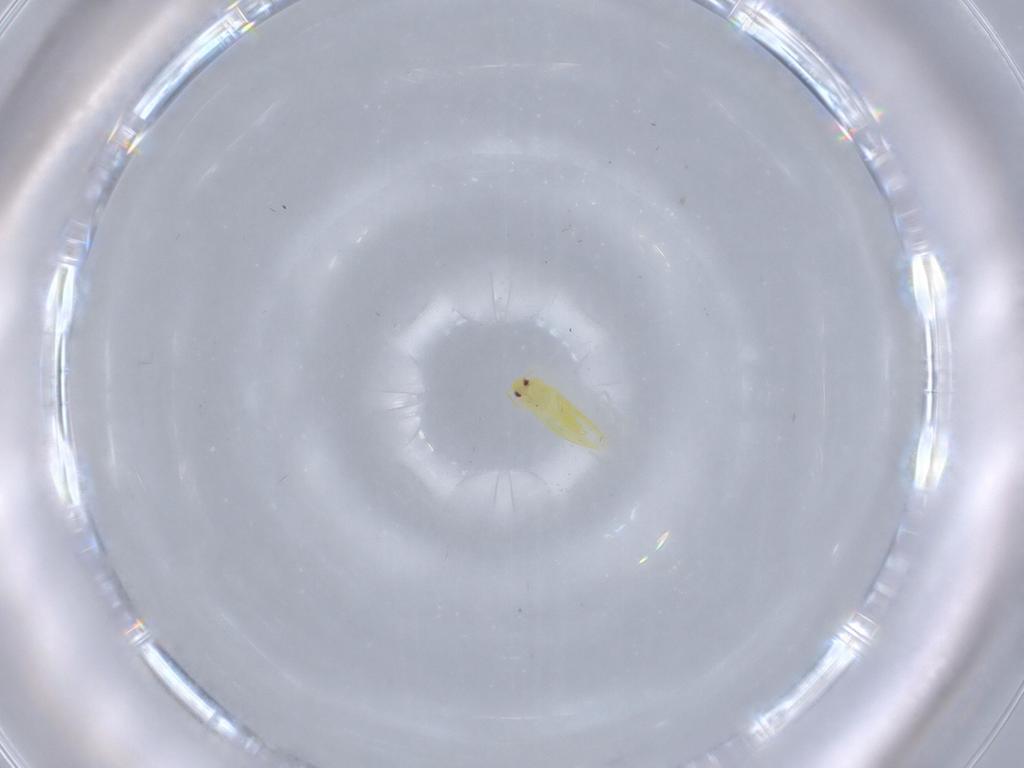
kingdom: Animalia
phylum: Arthropoda
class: Insecta
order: Hemiptera
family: Aleyrodidae
